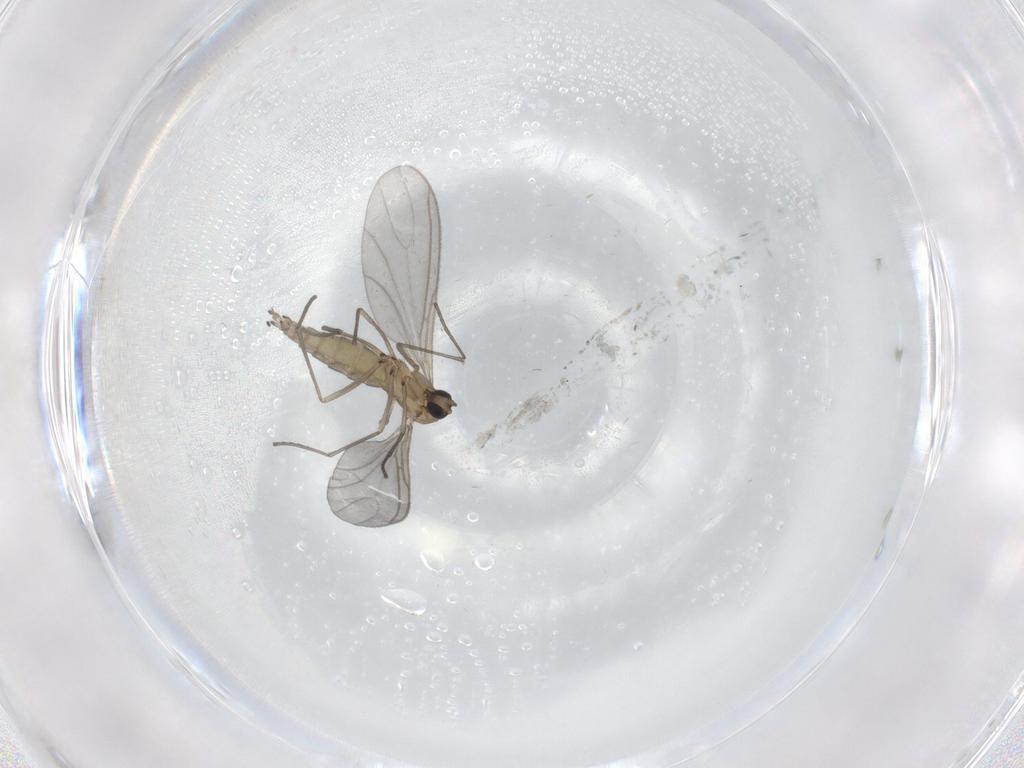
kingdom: Animalia
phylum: Arthropoda
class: Insecta
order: Diptera
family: Sciaridae
